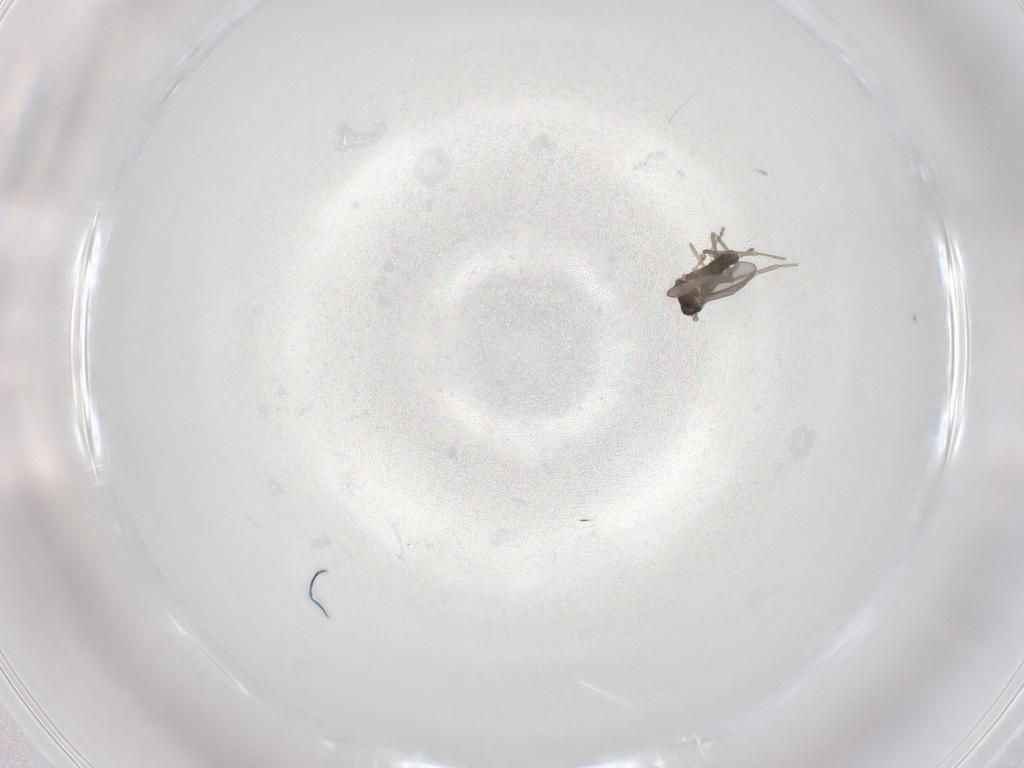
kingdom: Animalia
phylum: Arthropoda
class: Insecta
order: Diptera
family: Cecidomyiidae
